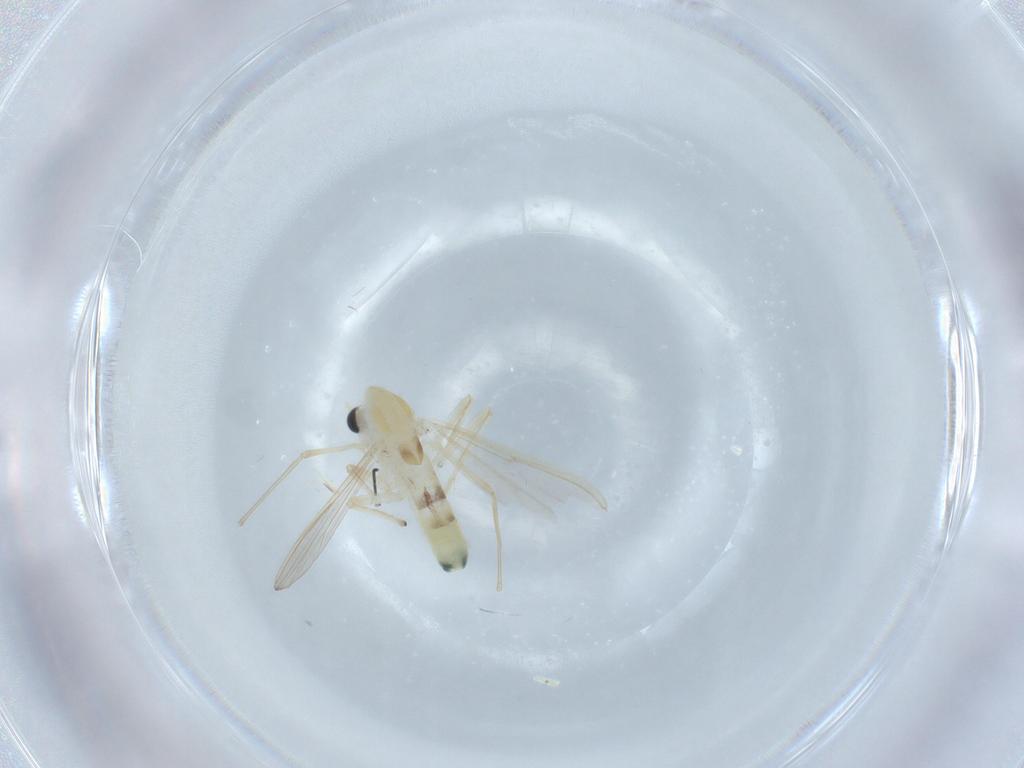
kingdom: Animalia
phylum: Arthropoda
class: Insecta
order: Diptera
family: Chironomidae
